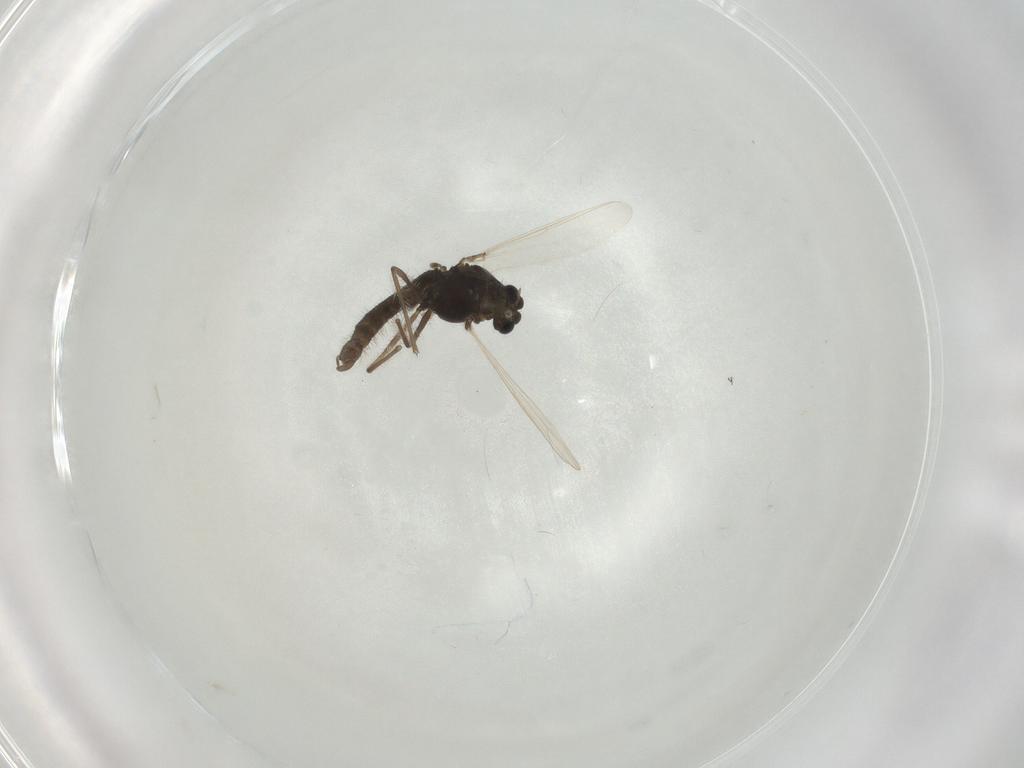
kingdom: Animalia
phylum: Arthropoda
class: Insecta
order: Diptera
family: Chironomidae
